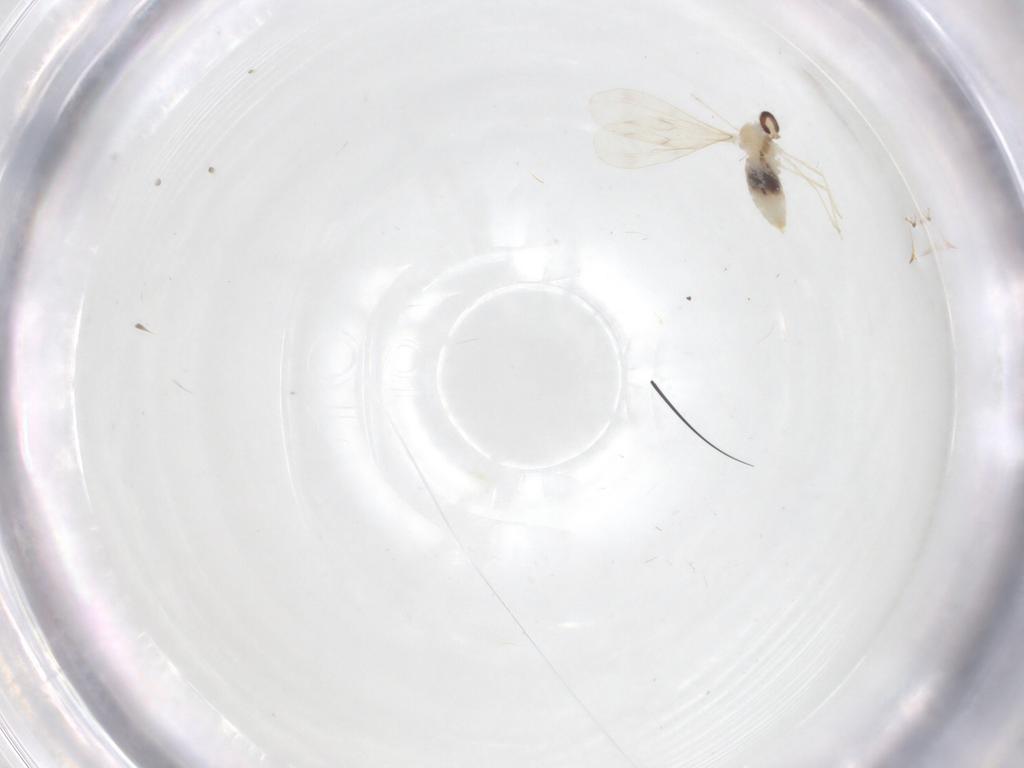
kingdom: Animalia
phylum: Arthropoda
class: Insecta
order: Diptera
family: Cecidomyiidae
